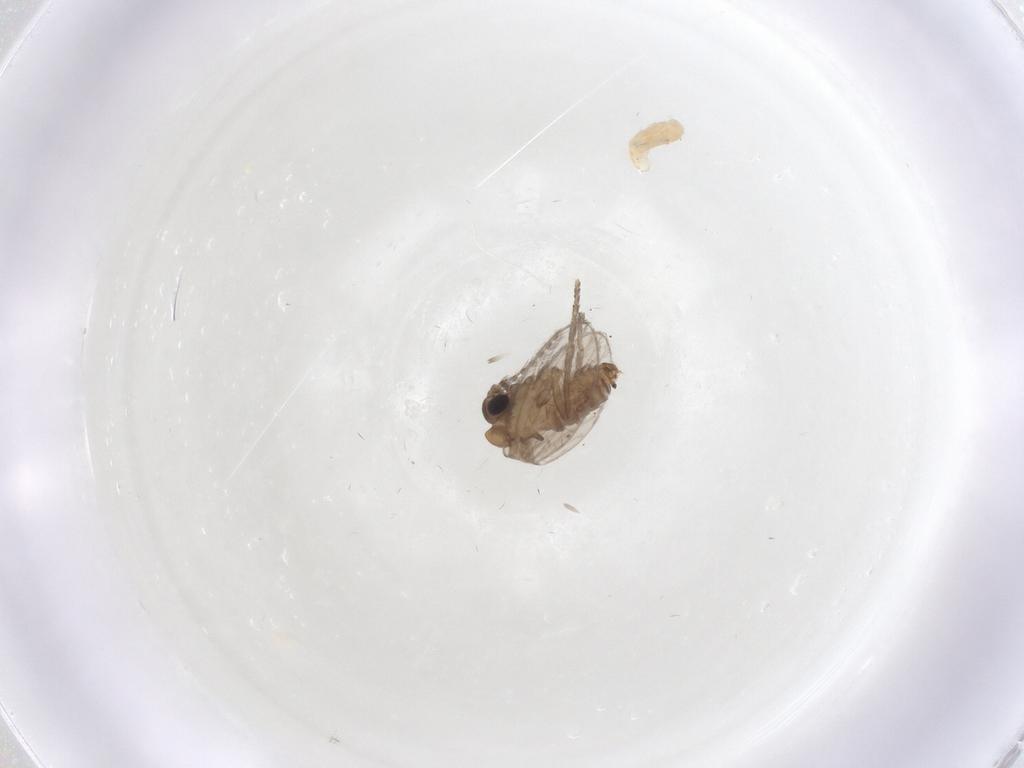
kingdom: Animalia
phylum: Arthropoda
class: Insecta
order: Diptera
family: Psychodidae
